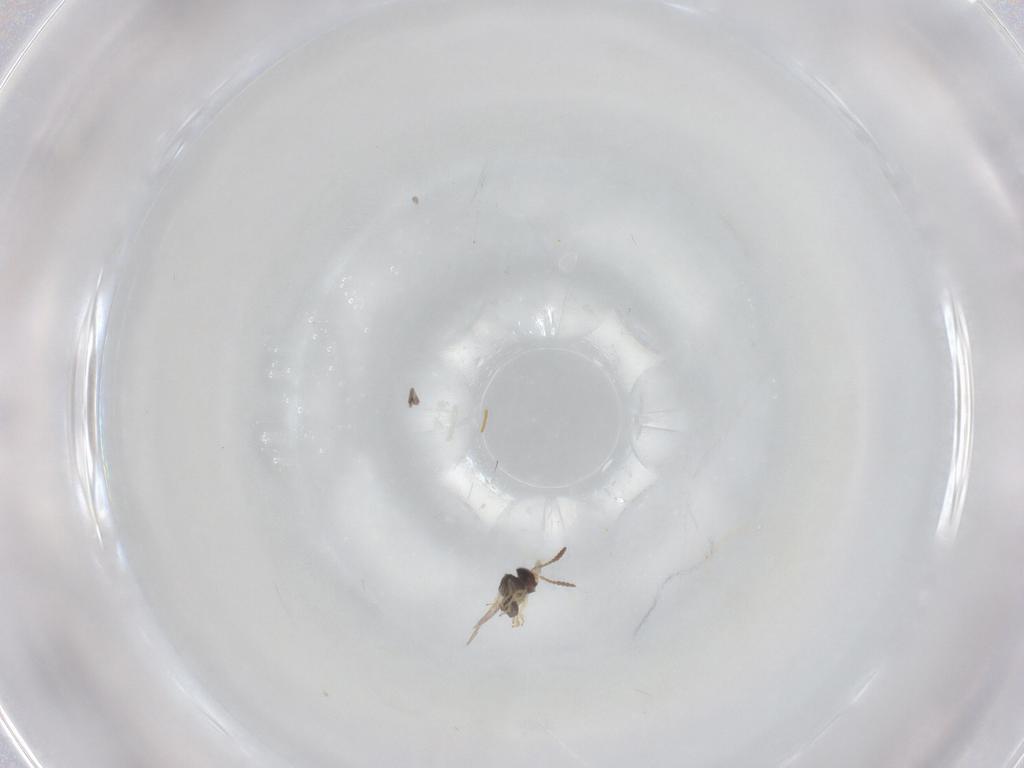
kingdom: Animalia
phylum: Arthropoda
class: Insecta
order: Hymenoptera
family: Scelionidae
